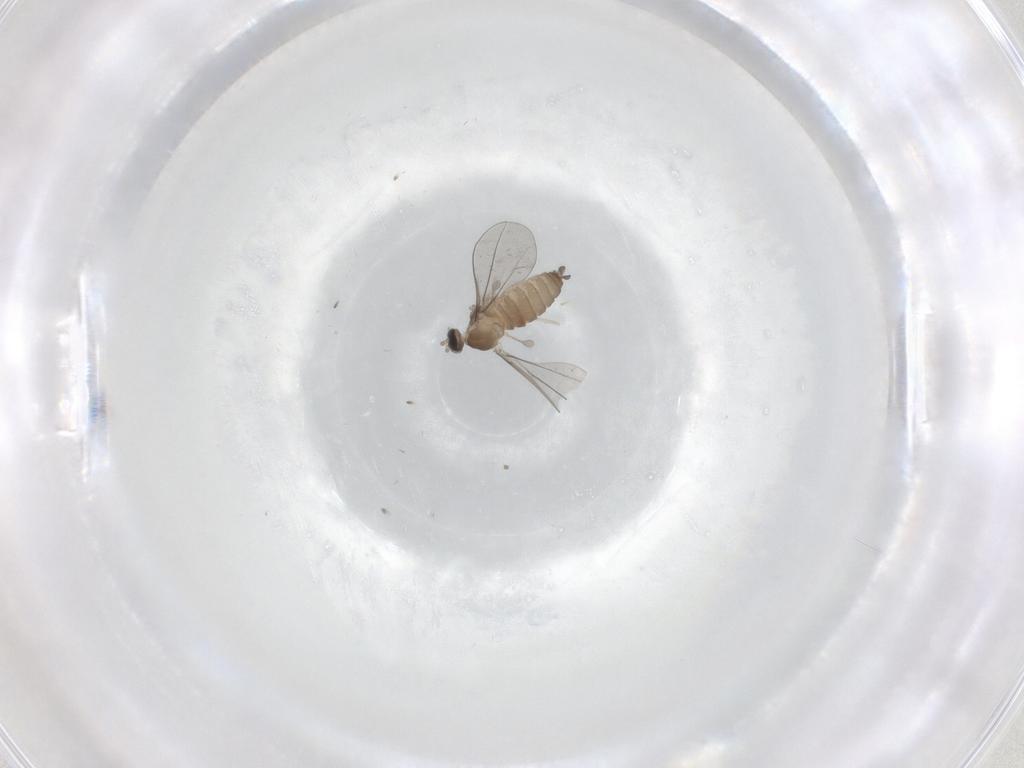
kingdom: Animalia
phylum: Arthropoda
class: Insecta
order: Diptera
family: Cecidomyiidae
